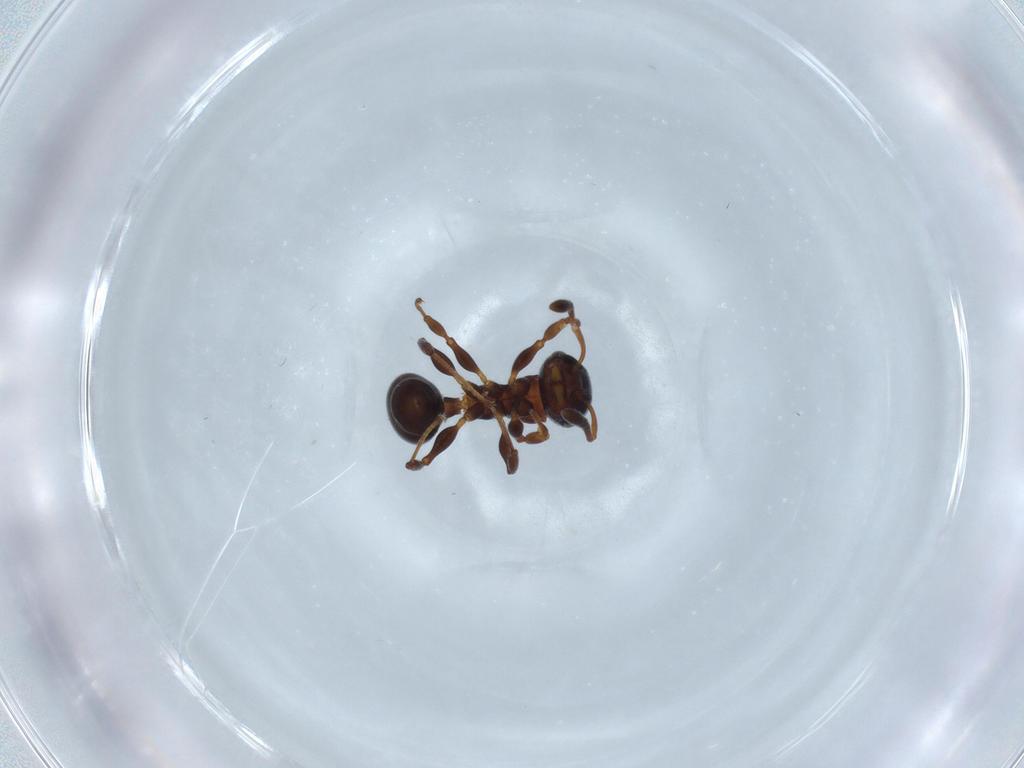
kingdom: Animalia
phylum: Arthropoda
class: Insecta
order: Hymenoptera
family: Formicidae
